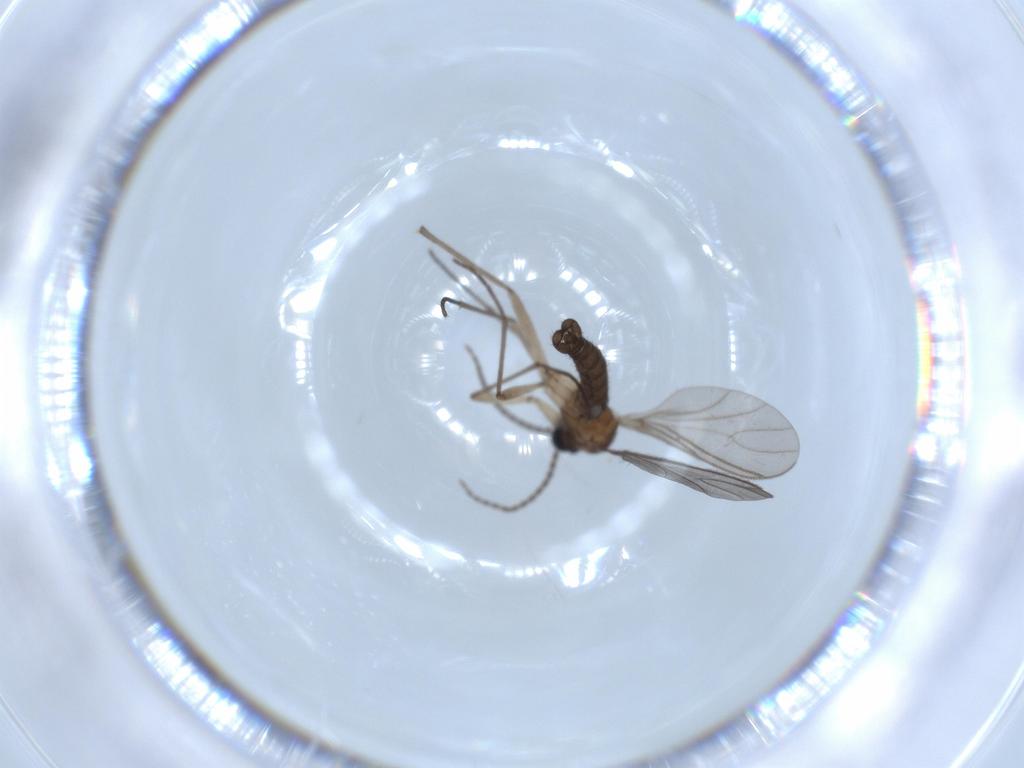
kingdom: Animalia
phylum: Arthropoda
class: Insecta
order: Diptera
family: Sciaridae
